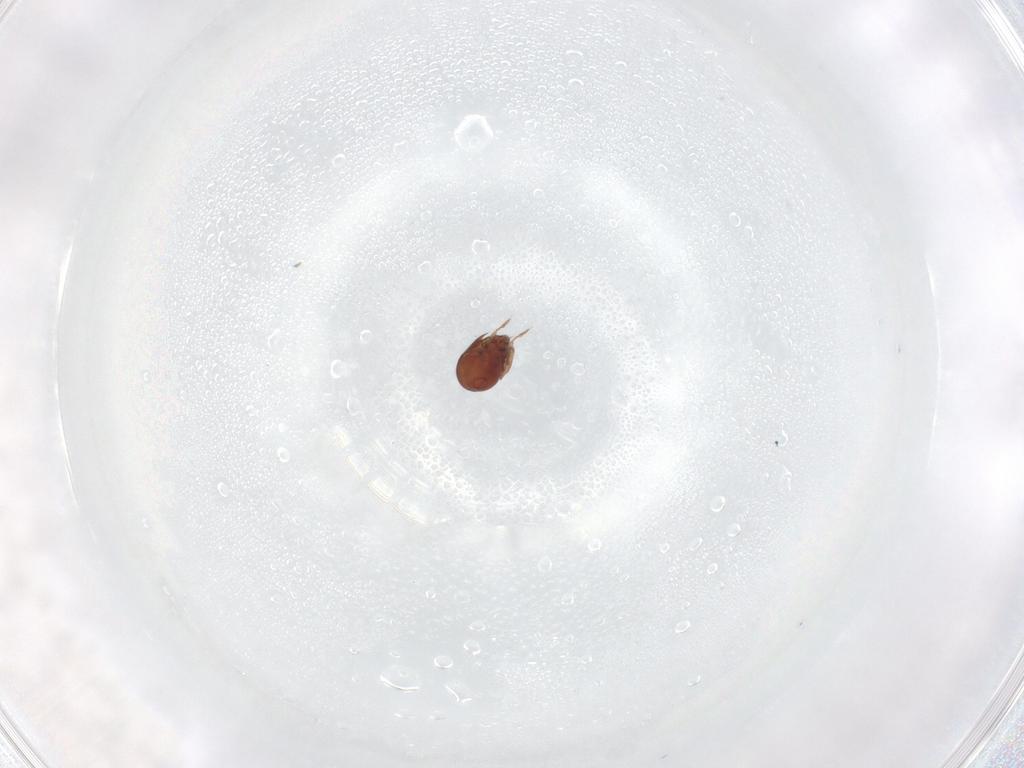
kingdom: Animalia
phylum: Arthropoda
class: Arachnida
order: Sarcoptiformes
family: Galumnidae
